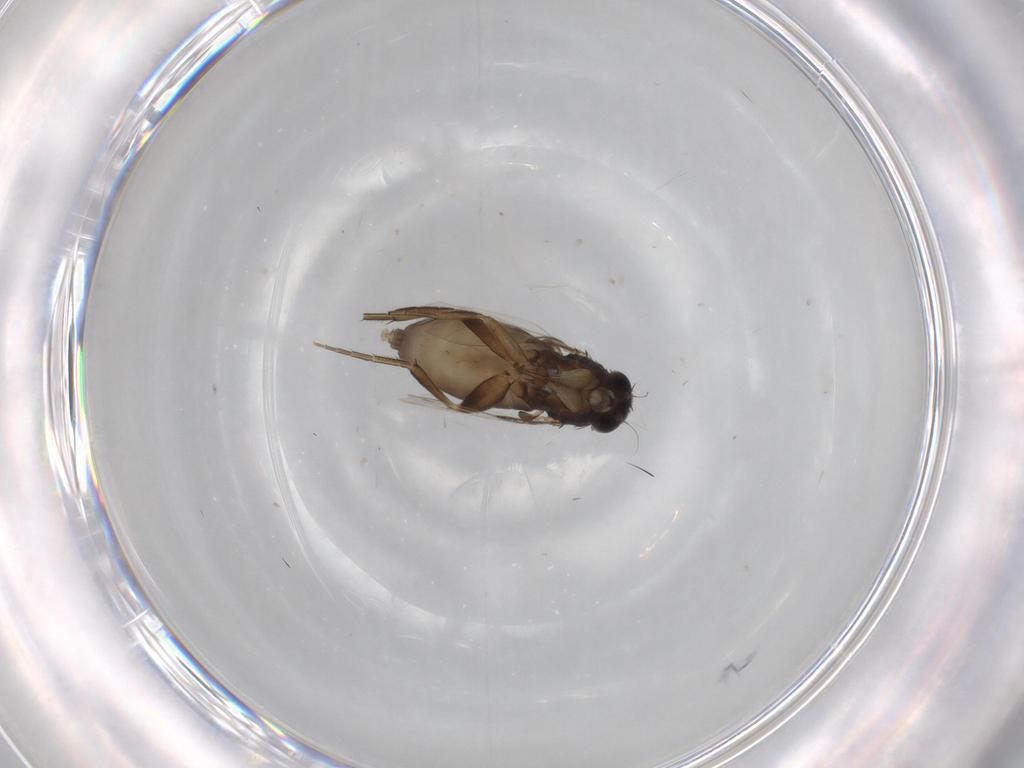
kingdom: Animalia
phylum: Arthropoda
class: Insecta
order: Diptera
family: Phoridae
